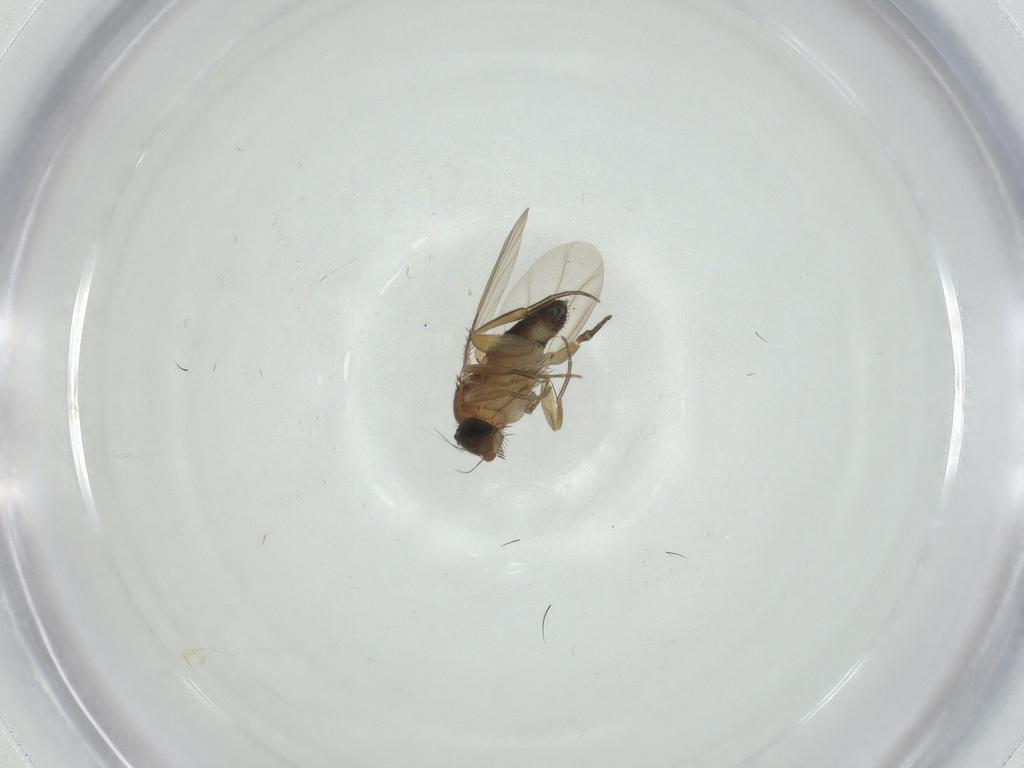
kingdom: Animalia
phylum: Arthropoda
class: Insecta
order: Diptera
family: Phoridae
